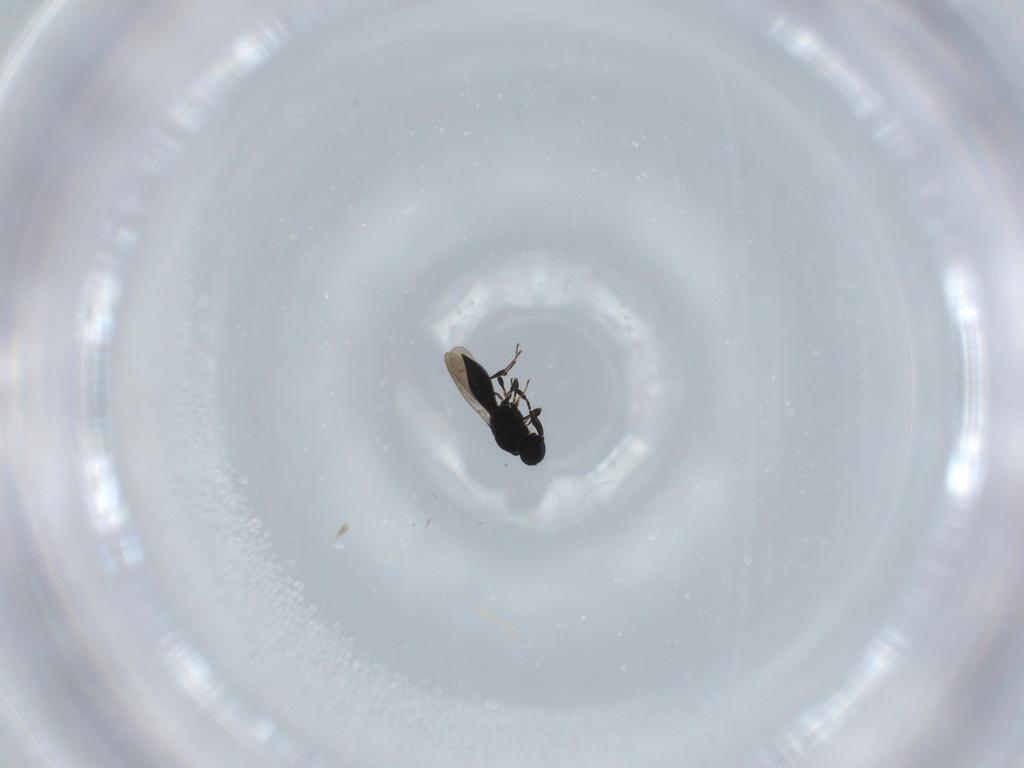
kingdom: Animalia
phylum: Arthropoda
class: Insecta
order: Hymenoptera
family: Platygastridae
